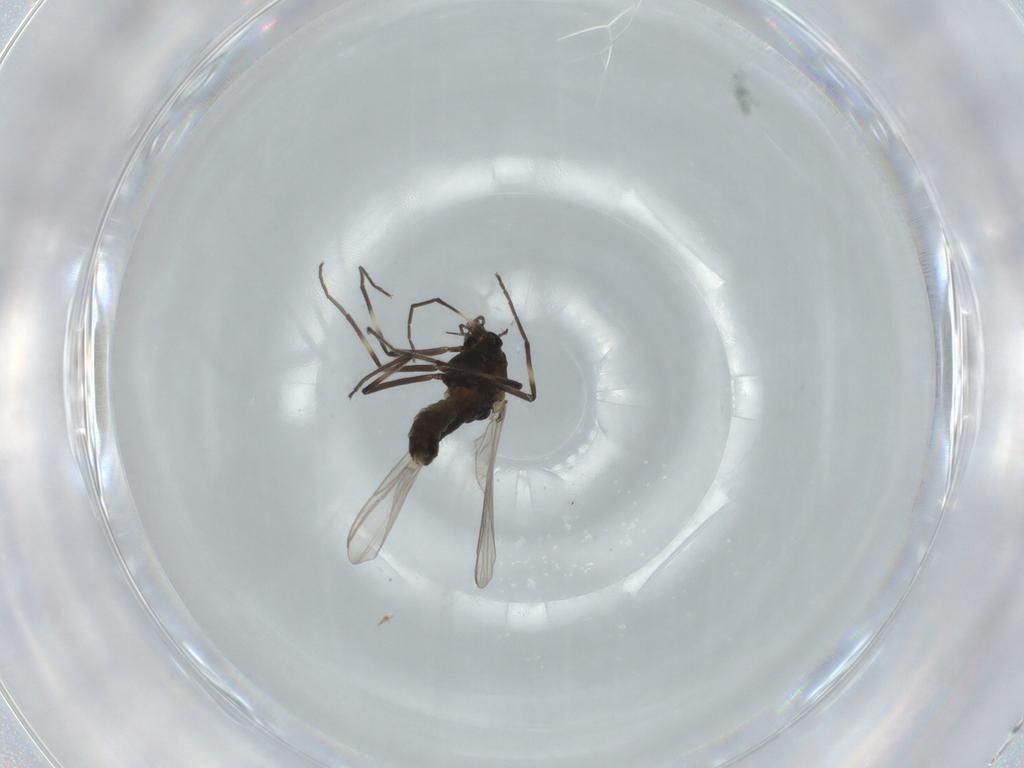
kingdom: Animalia
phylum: Arthropoda
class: Insecta
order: Diptera
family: Chironomidae
